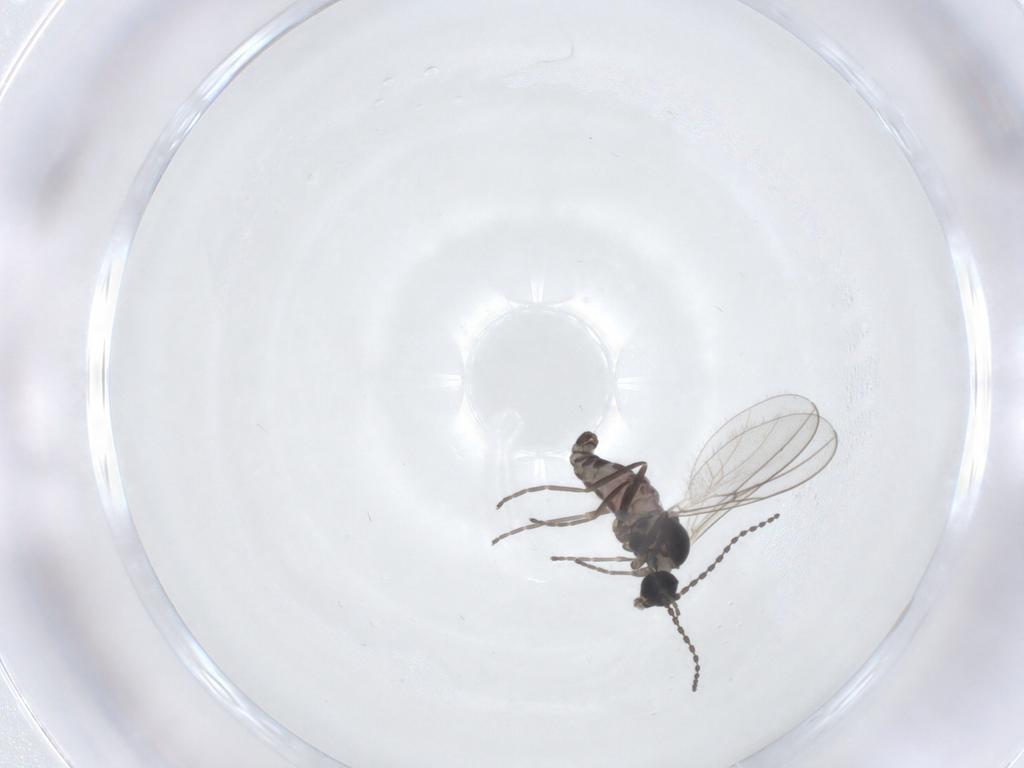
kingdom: Animalia
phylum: Arthropoda
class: Insecta
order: Diptera
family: Cecidomyiidae
